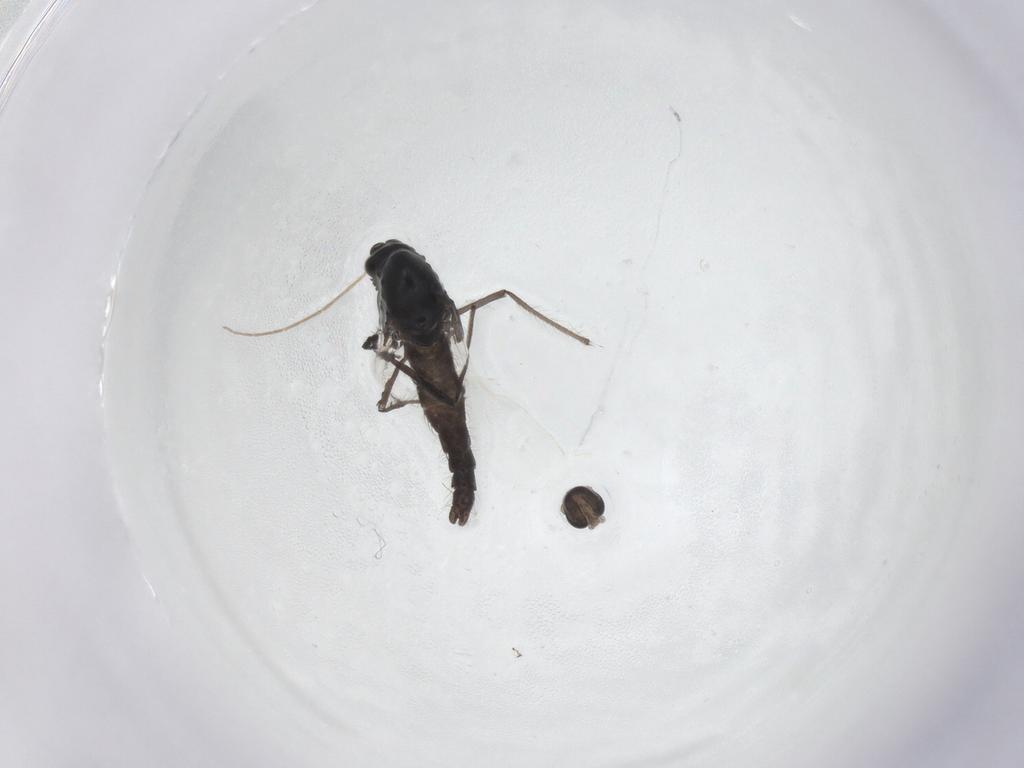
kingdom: Animalia
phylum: Arthropoda
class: Insecta
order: Diptera
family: Cecidomyiidae
